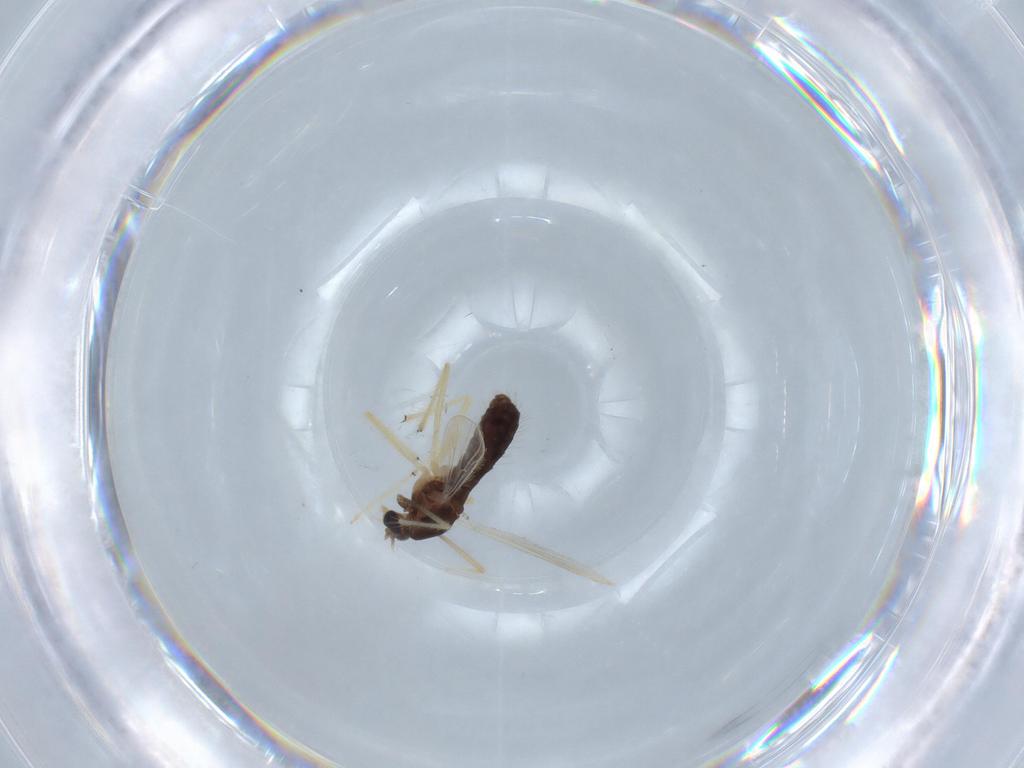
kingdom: Animalia
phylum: Arthropoda
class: Insecta
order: Diptera
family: Chironomidae
